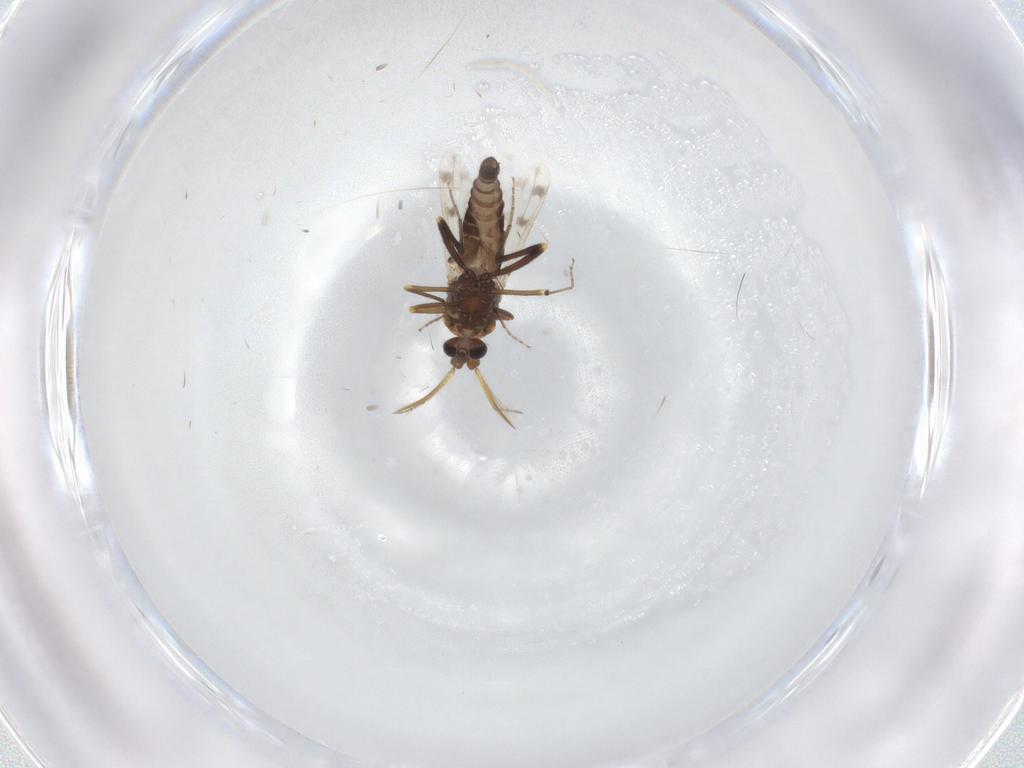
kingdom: Animalia
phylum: Arthropoda
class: Insecta
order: Diptera
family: Ceratopogonidae
